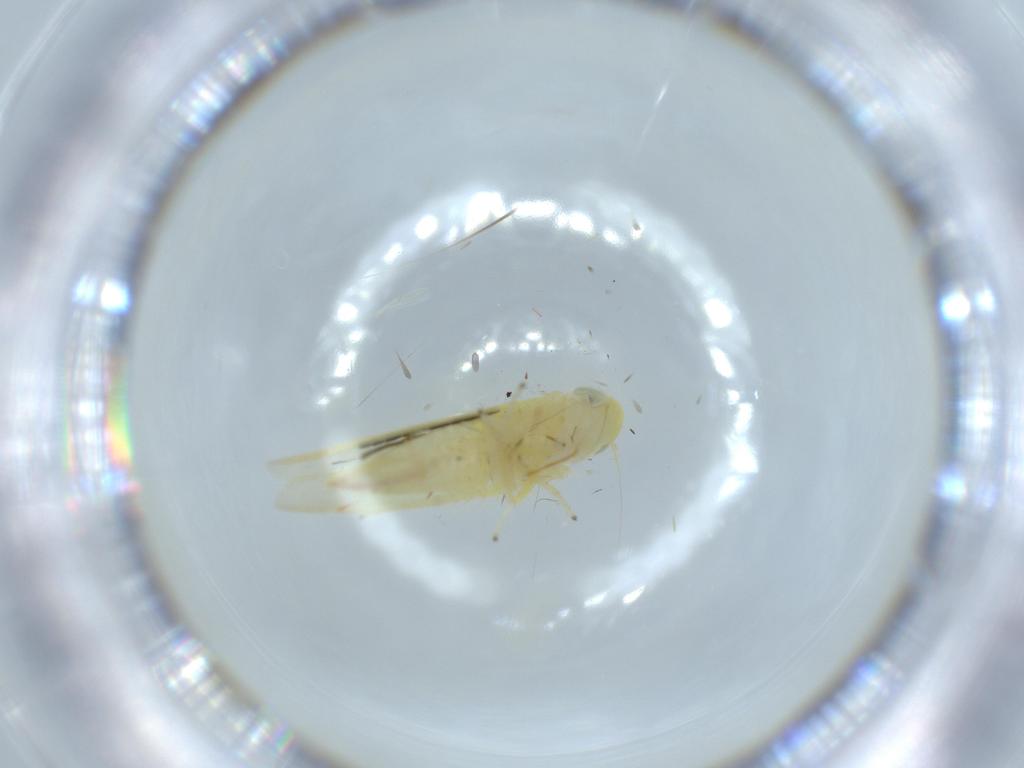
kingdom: Animalia
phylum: Arthropoda
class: Insecta
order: Hemiptera
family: Cicadellidae
